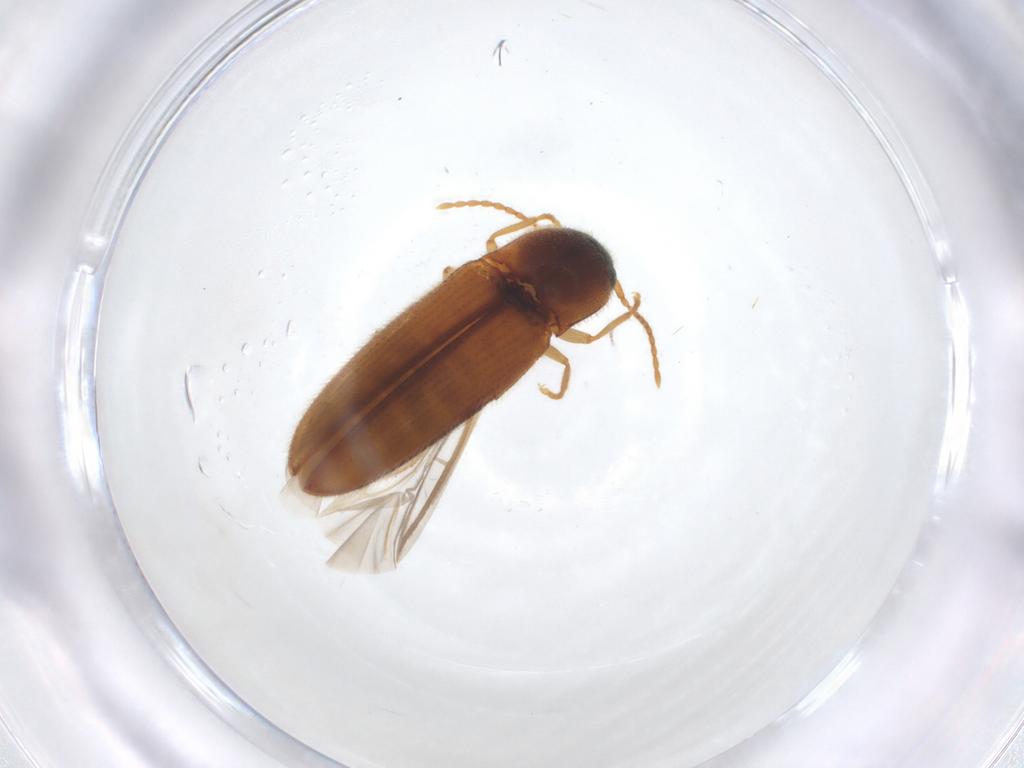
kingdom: Animalia
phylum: Arthropoda
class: Insecta
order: Coleoptera
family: Elateridae
